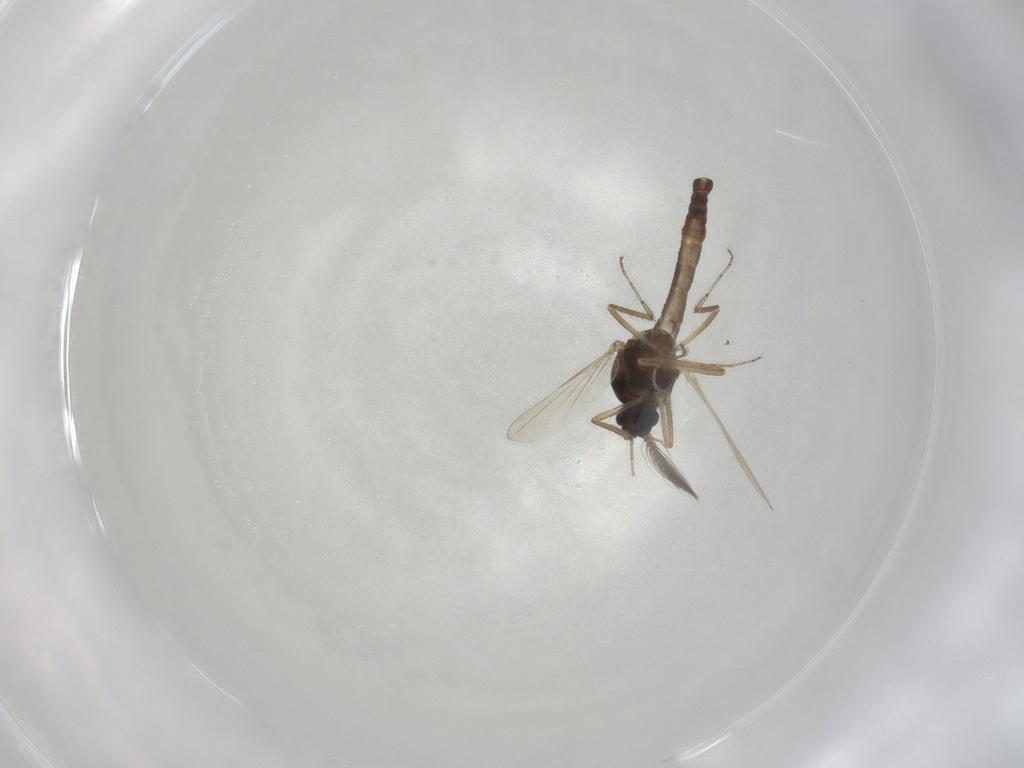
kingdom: Animalia
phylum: Arthropoda
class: Insecta
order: Diptera
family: Ceratopogonidae
